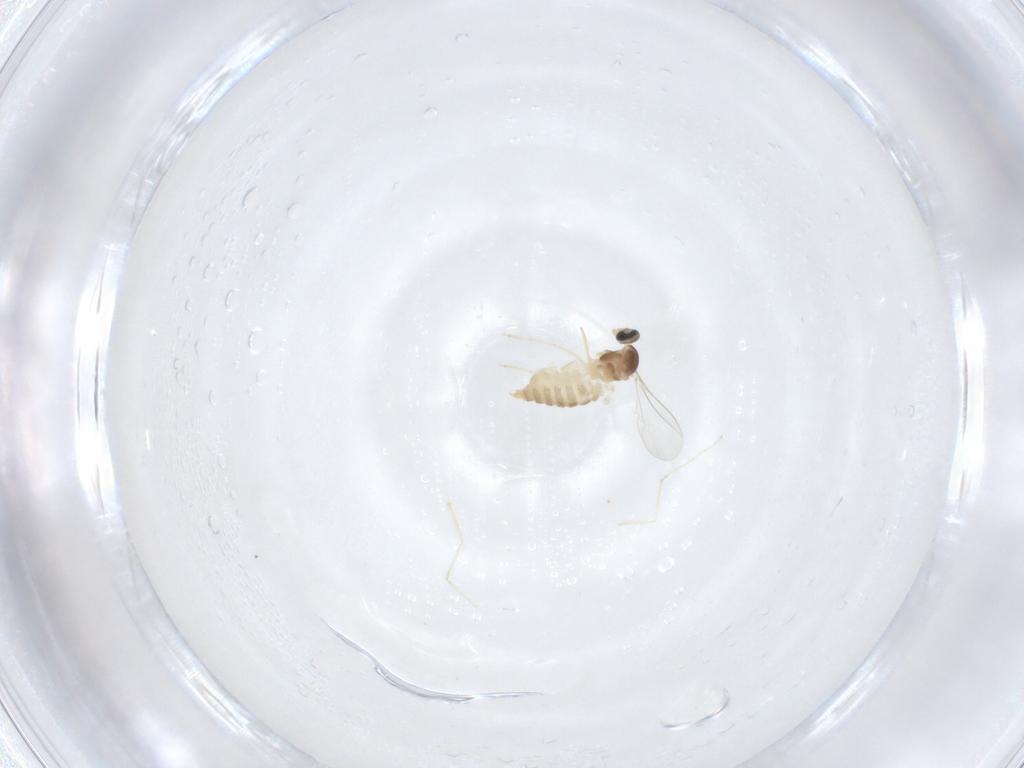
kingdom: Animalia
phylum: Arthropoda
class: Insecta
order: Diptera
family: Cecidomyiidae
